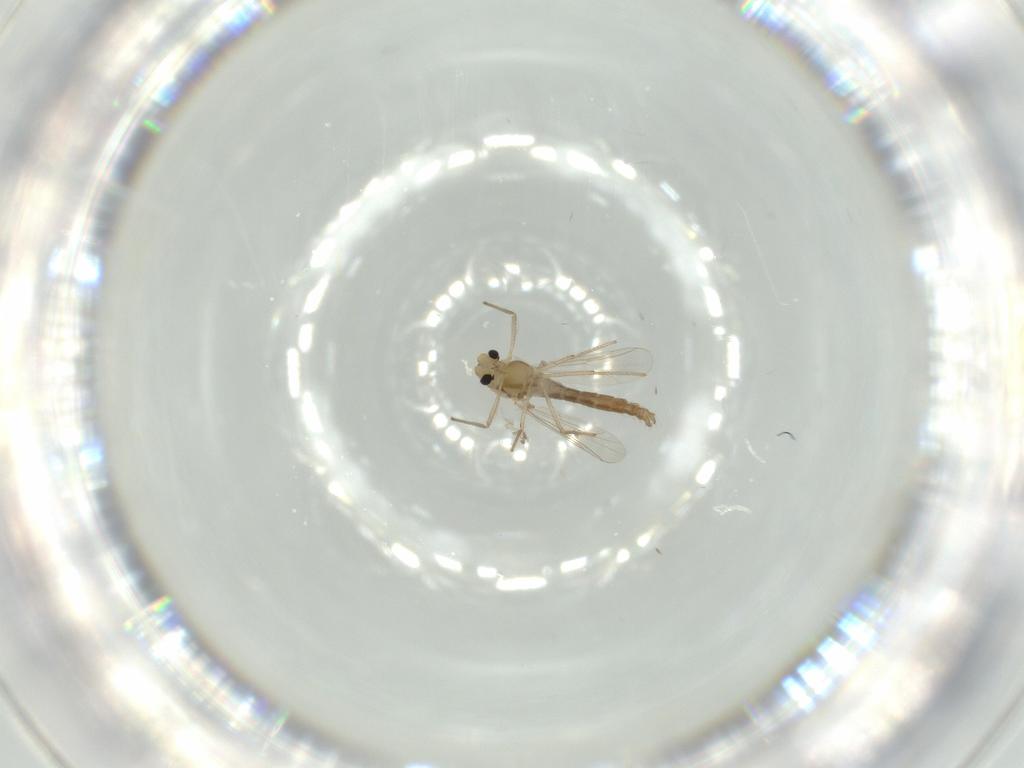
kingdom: Animalia
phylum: Arthropoda
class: Insecta
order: Diptera
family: Chironomidae
